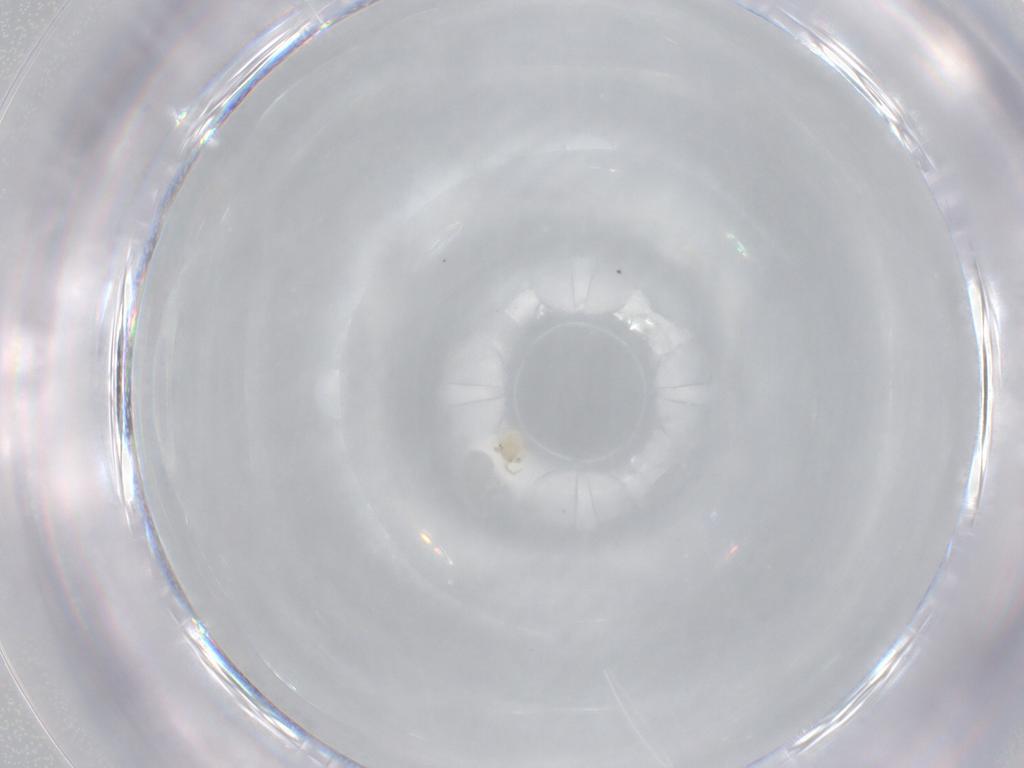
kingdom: Animalia
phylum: Arthropoda
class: Arachnida
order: Trombidiformes
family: Hydryphantidae
